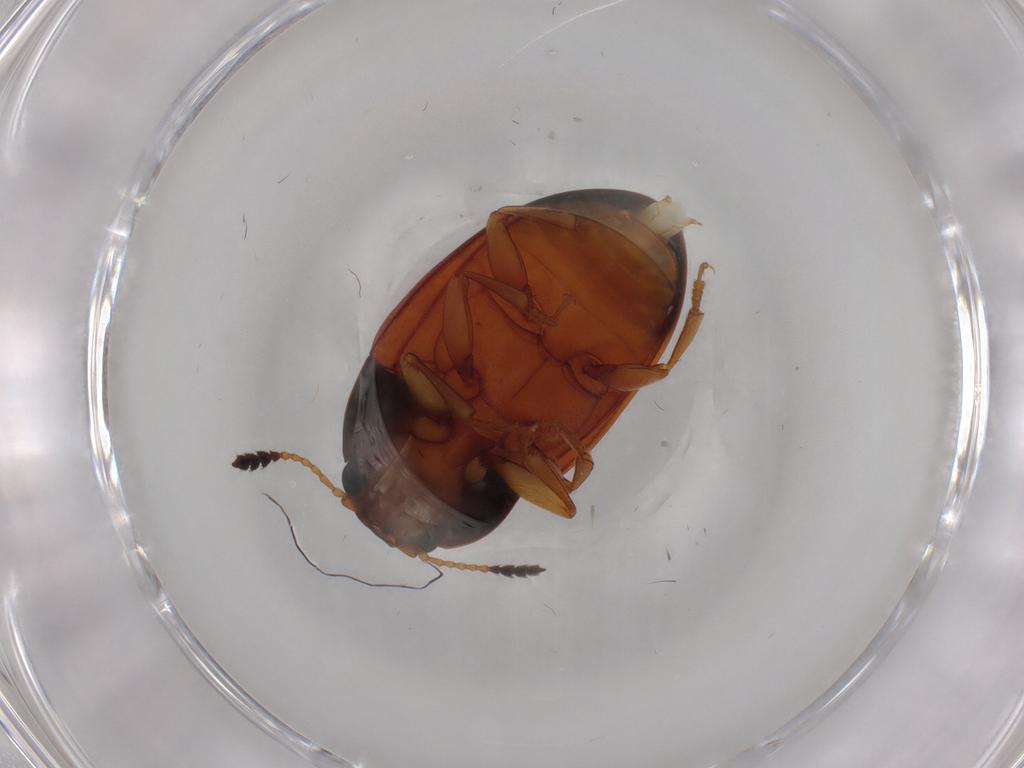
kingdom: Animalia
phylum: Arthropoda
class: Insecta
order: Coleoptera
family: Erotylidae
